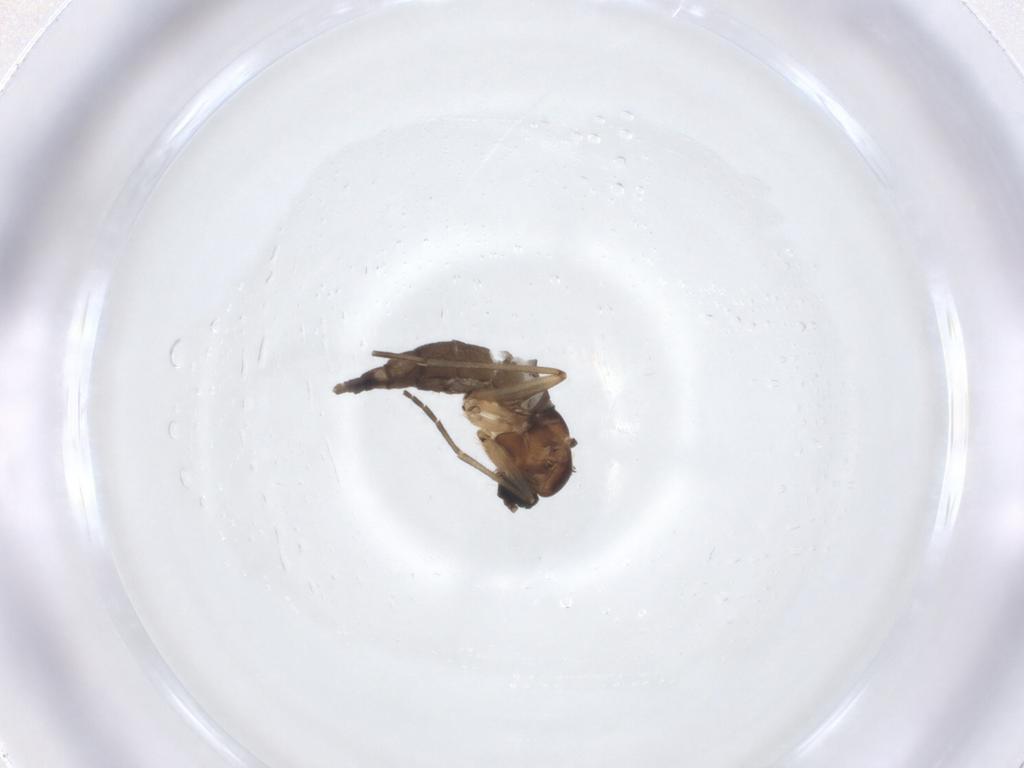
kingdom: Animalia
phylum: Arthropoda
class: Insecta
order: Diptera
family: Sciaridae
